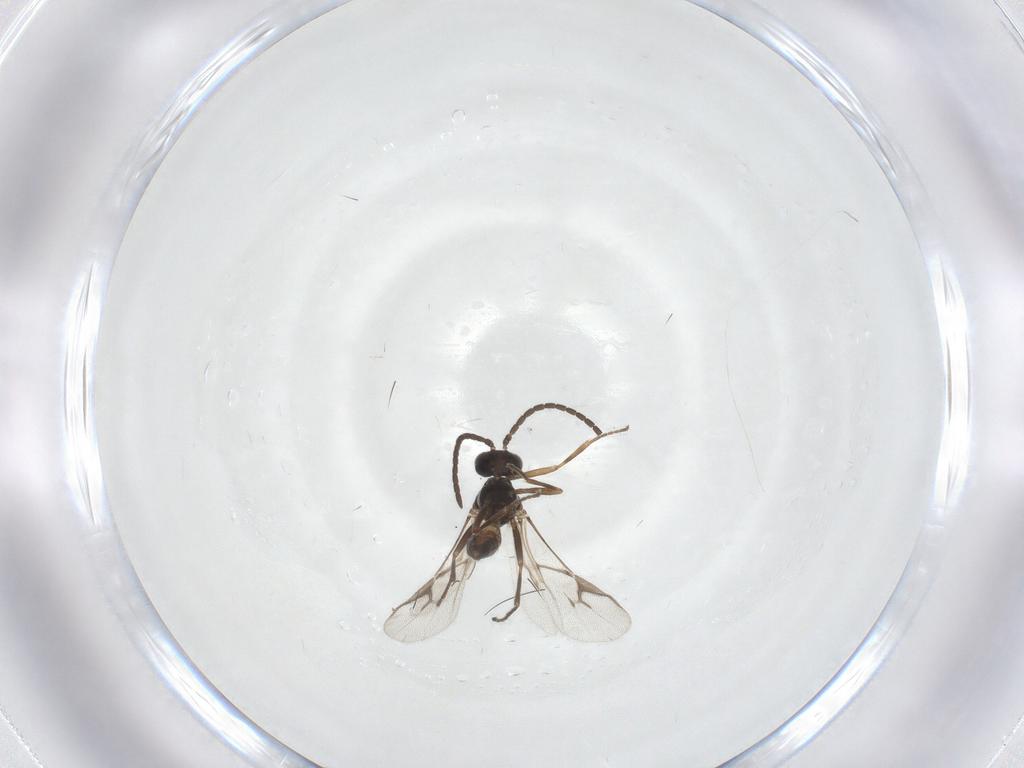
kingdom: Animalia
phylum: Arthropoda
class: Insecta
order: Hymenoptera
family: Braconidae
